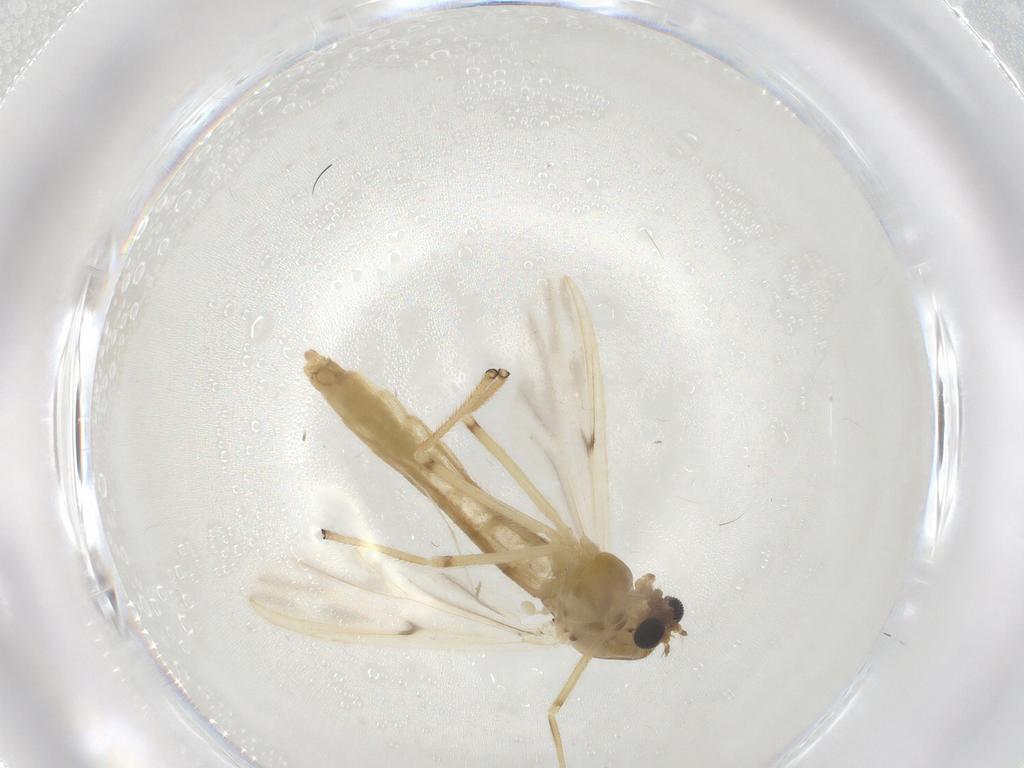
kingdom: Animalia
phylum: Arthropoda
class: Insecta
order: Diptera
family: Chironomidae
